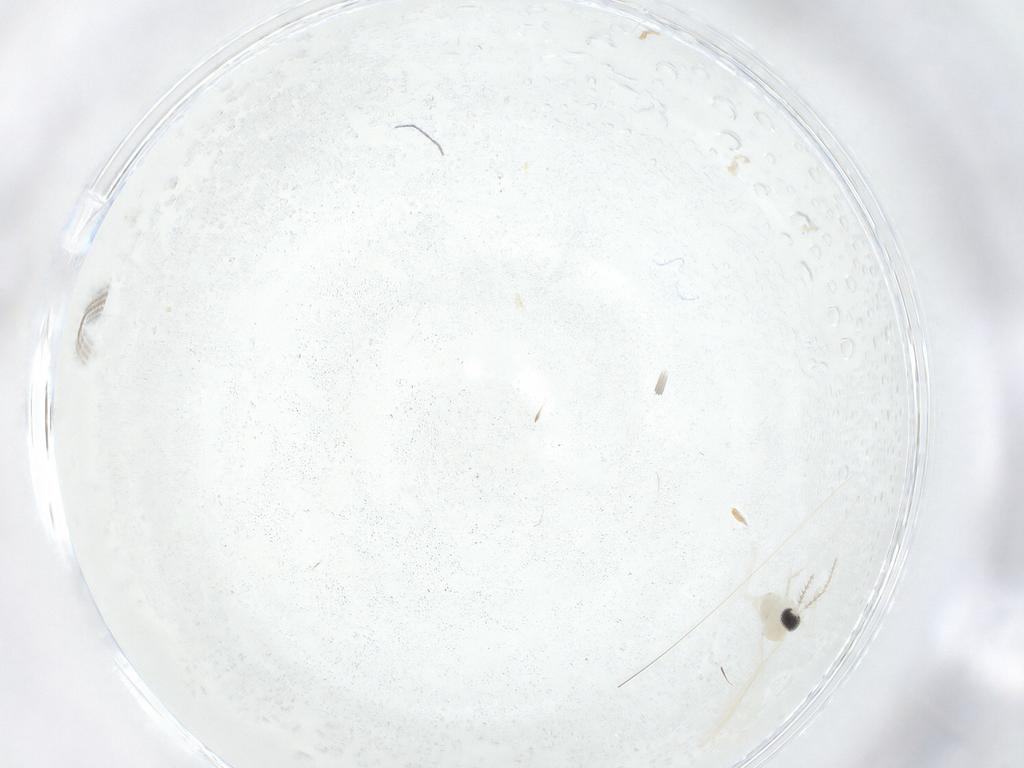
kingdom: Animalia
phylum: Arthropoda
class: Insecta
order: Diptera
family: Cecidomyiidae
